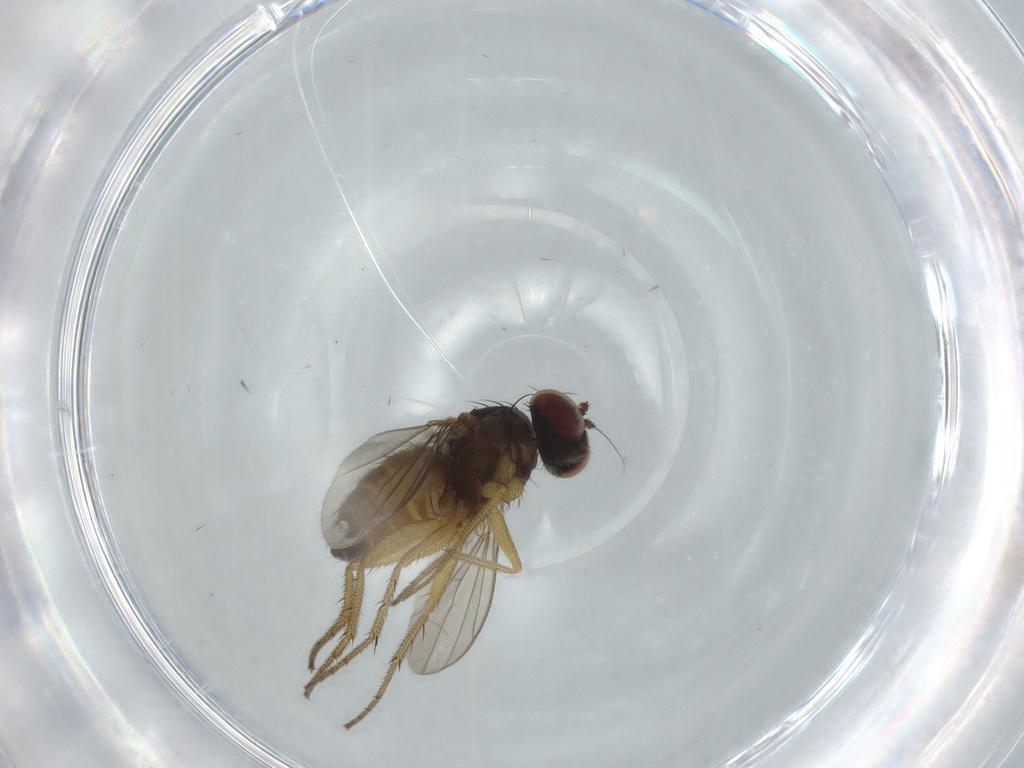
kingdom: Animalia
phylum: Arthropoda
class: Insecta
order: Diptera
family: Dolichopodidae
